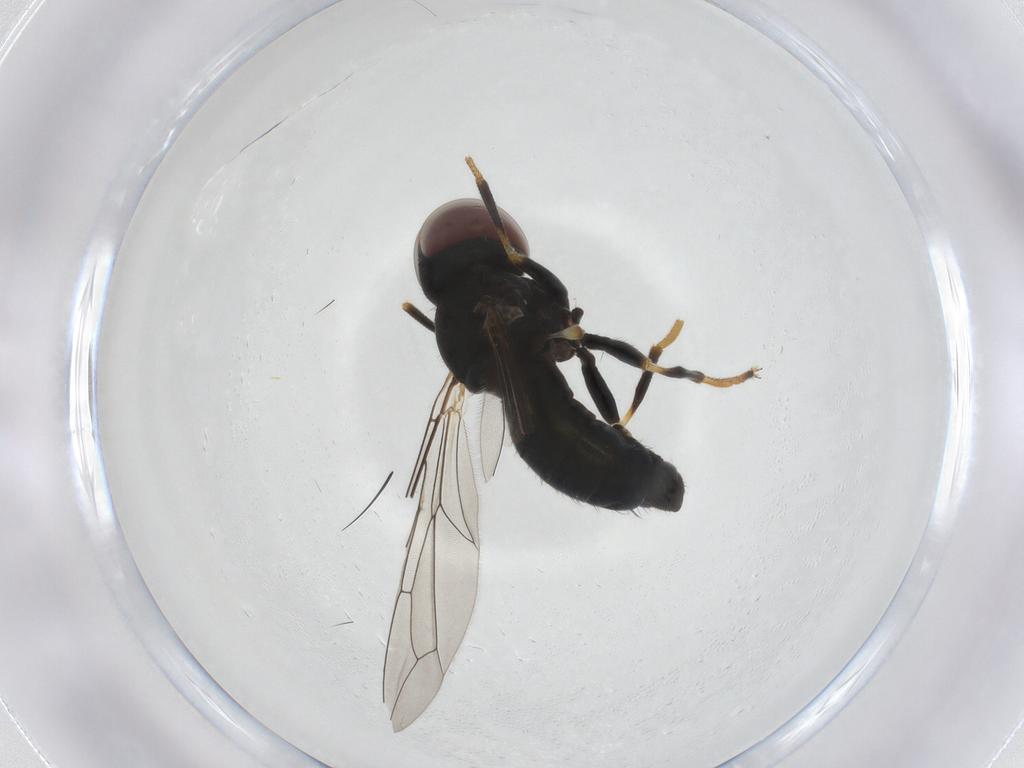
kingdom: Animalia
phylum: Arthropoda
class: Insecta
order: Diptera
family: Pipunculidae
